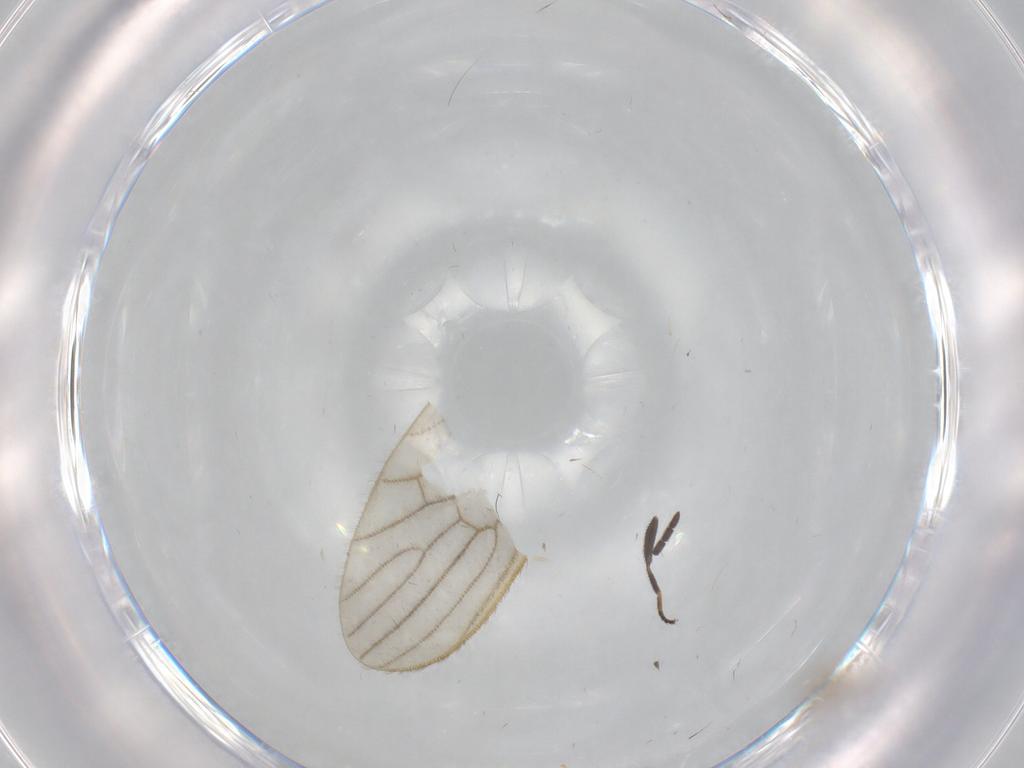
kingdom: Animalia
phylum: Arthropoda
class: Insecta
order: Diptera
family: Cecidomyiidae
